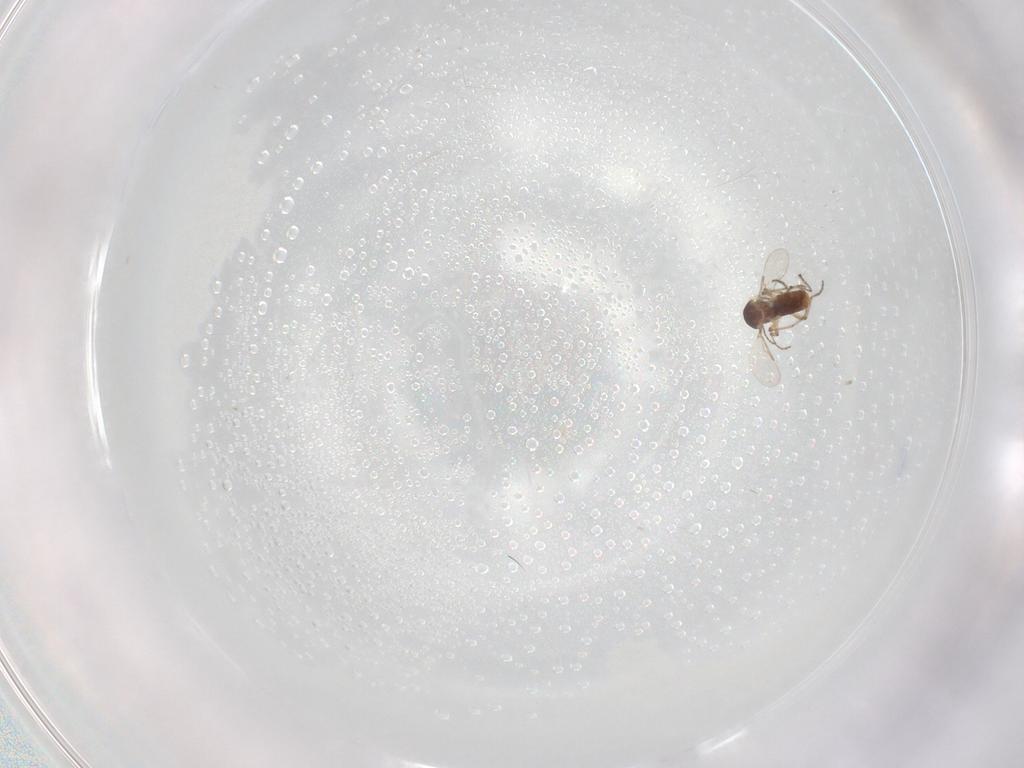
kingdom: Animalia
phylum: Arthropoda
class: Insecta
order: Diptera
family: Ceratopogonidae
